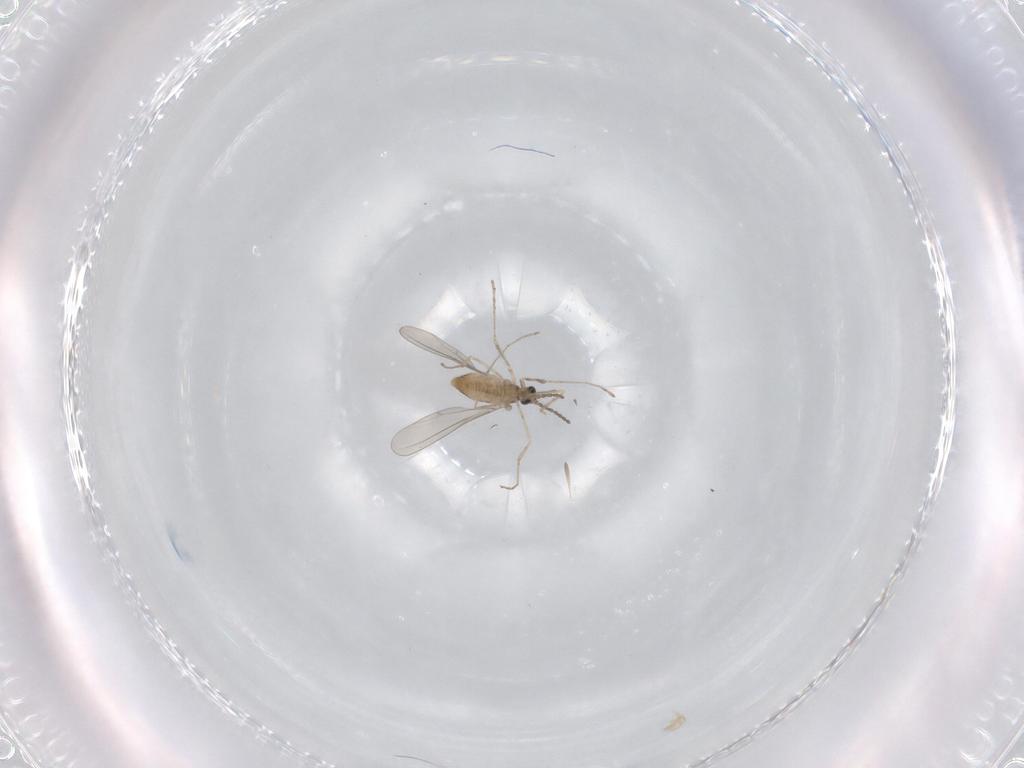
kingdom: Animalia
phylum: Arthropoda
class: Insecta
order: Diptera
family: Cecidomyiidae
